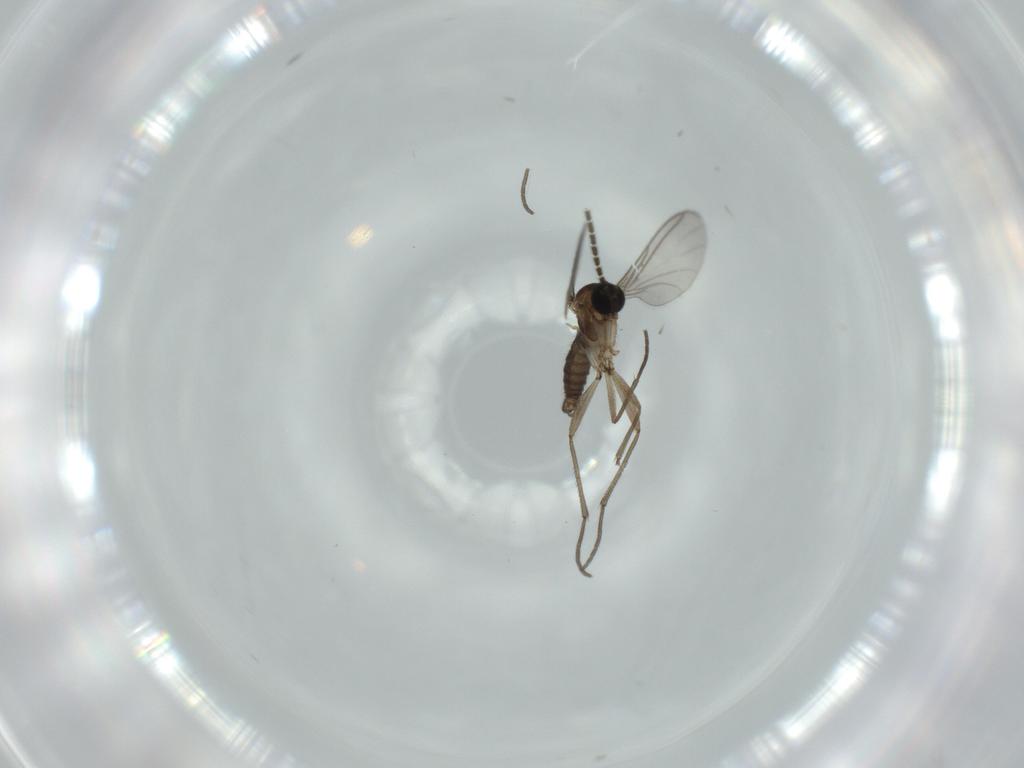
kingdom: Animalia
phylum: Arthropoda
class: Insecta
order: Diptera
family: Sciaridae
